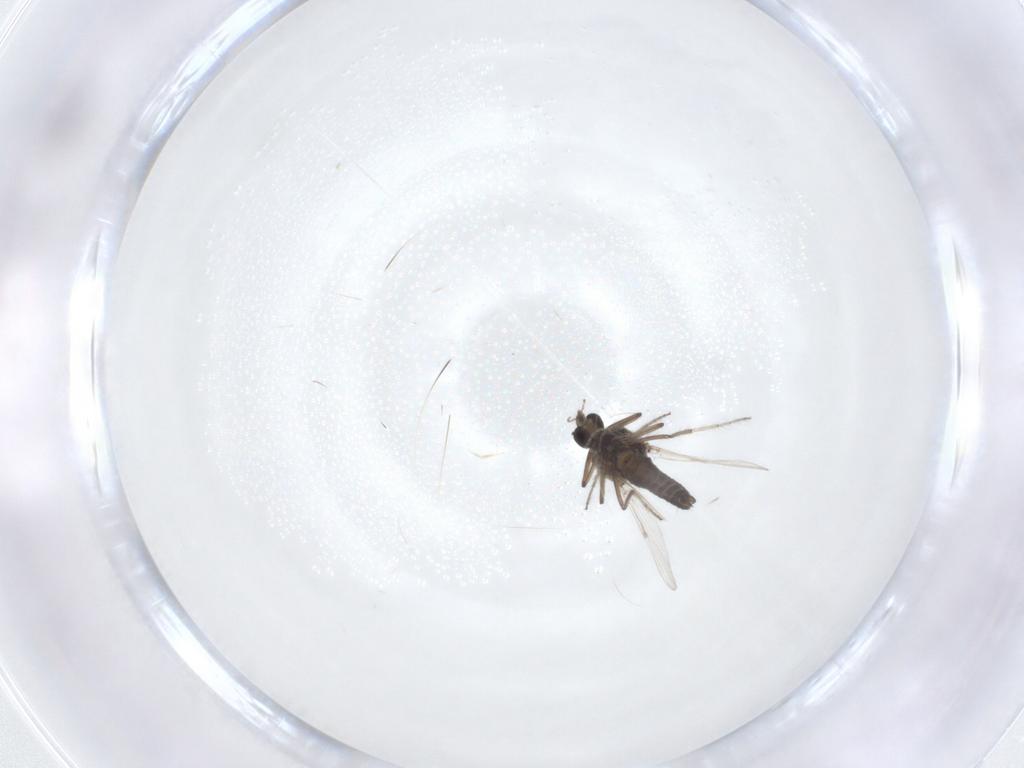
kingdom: Animalia
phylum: Arthropoda
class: Insecta
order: Diptera
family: Ceratopogonidae
